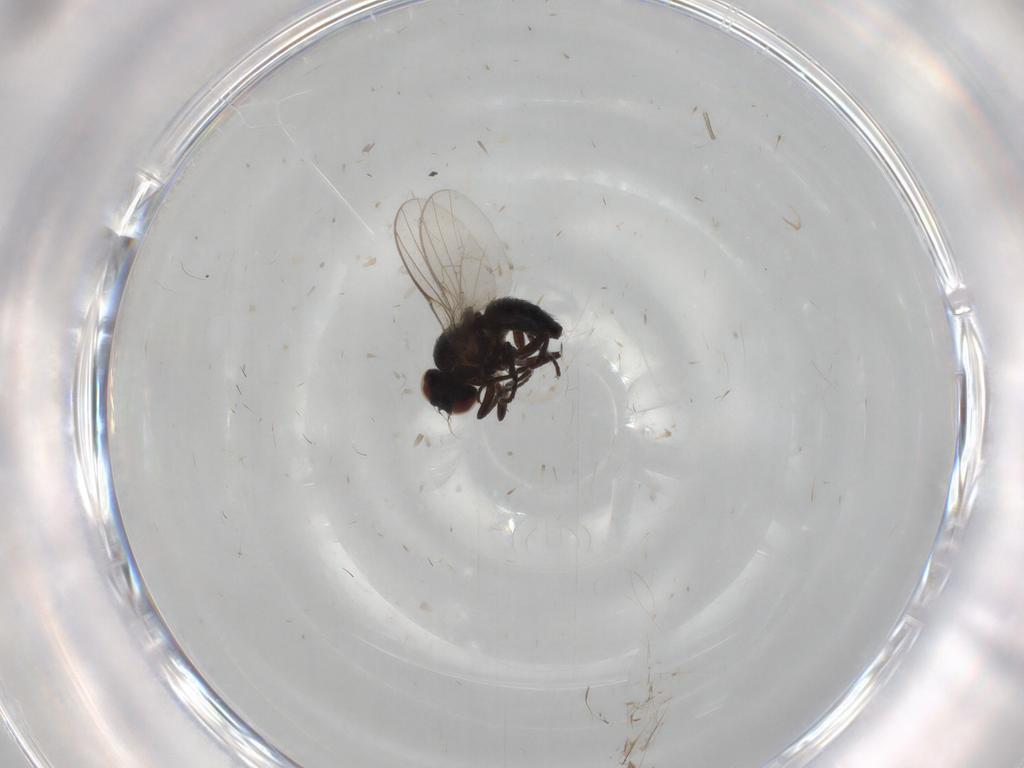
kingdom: Animalia
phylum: Arthropoda
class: Insecta
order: Diptera
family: Agromyzidae
